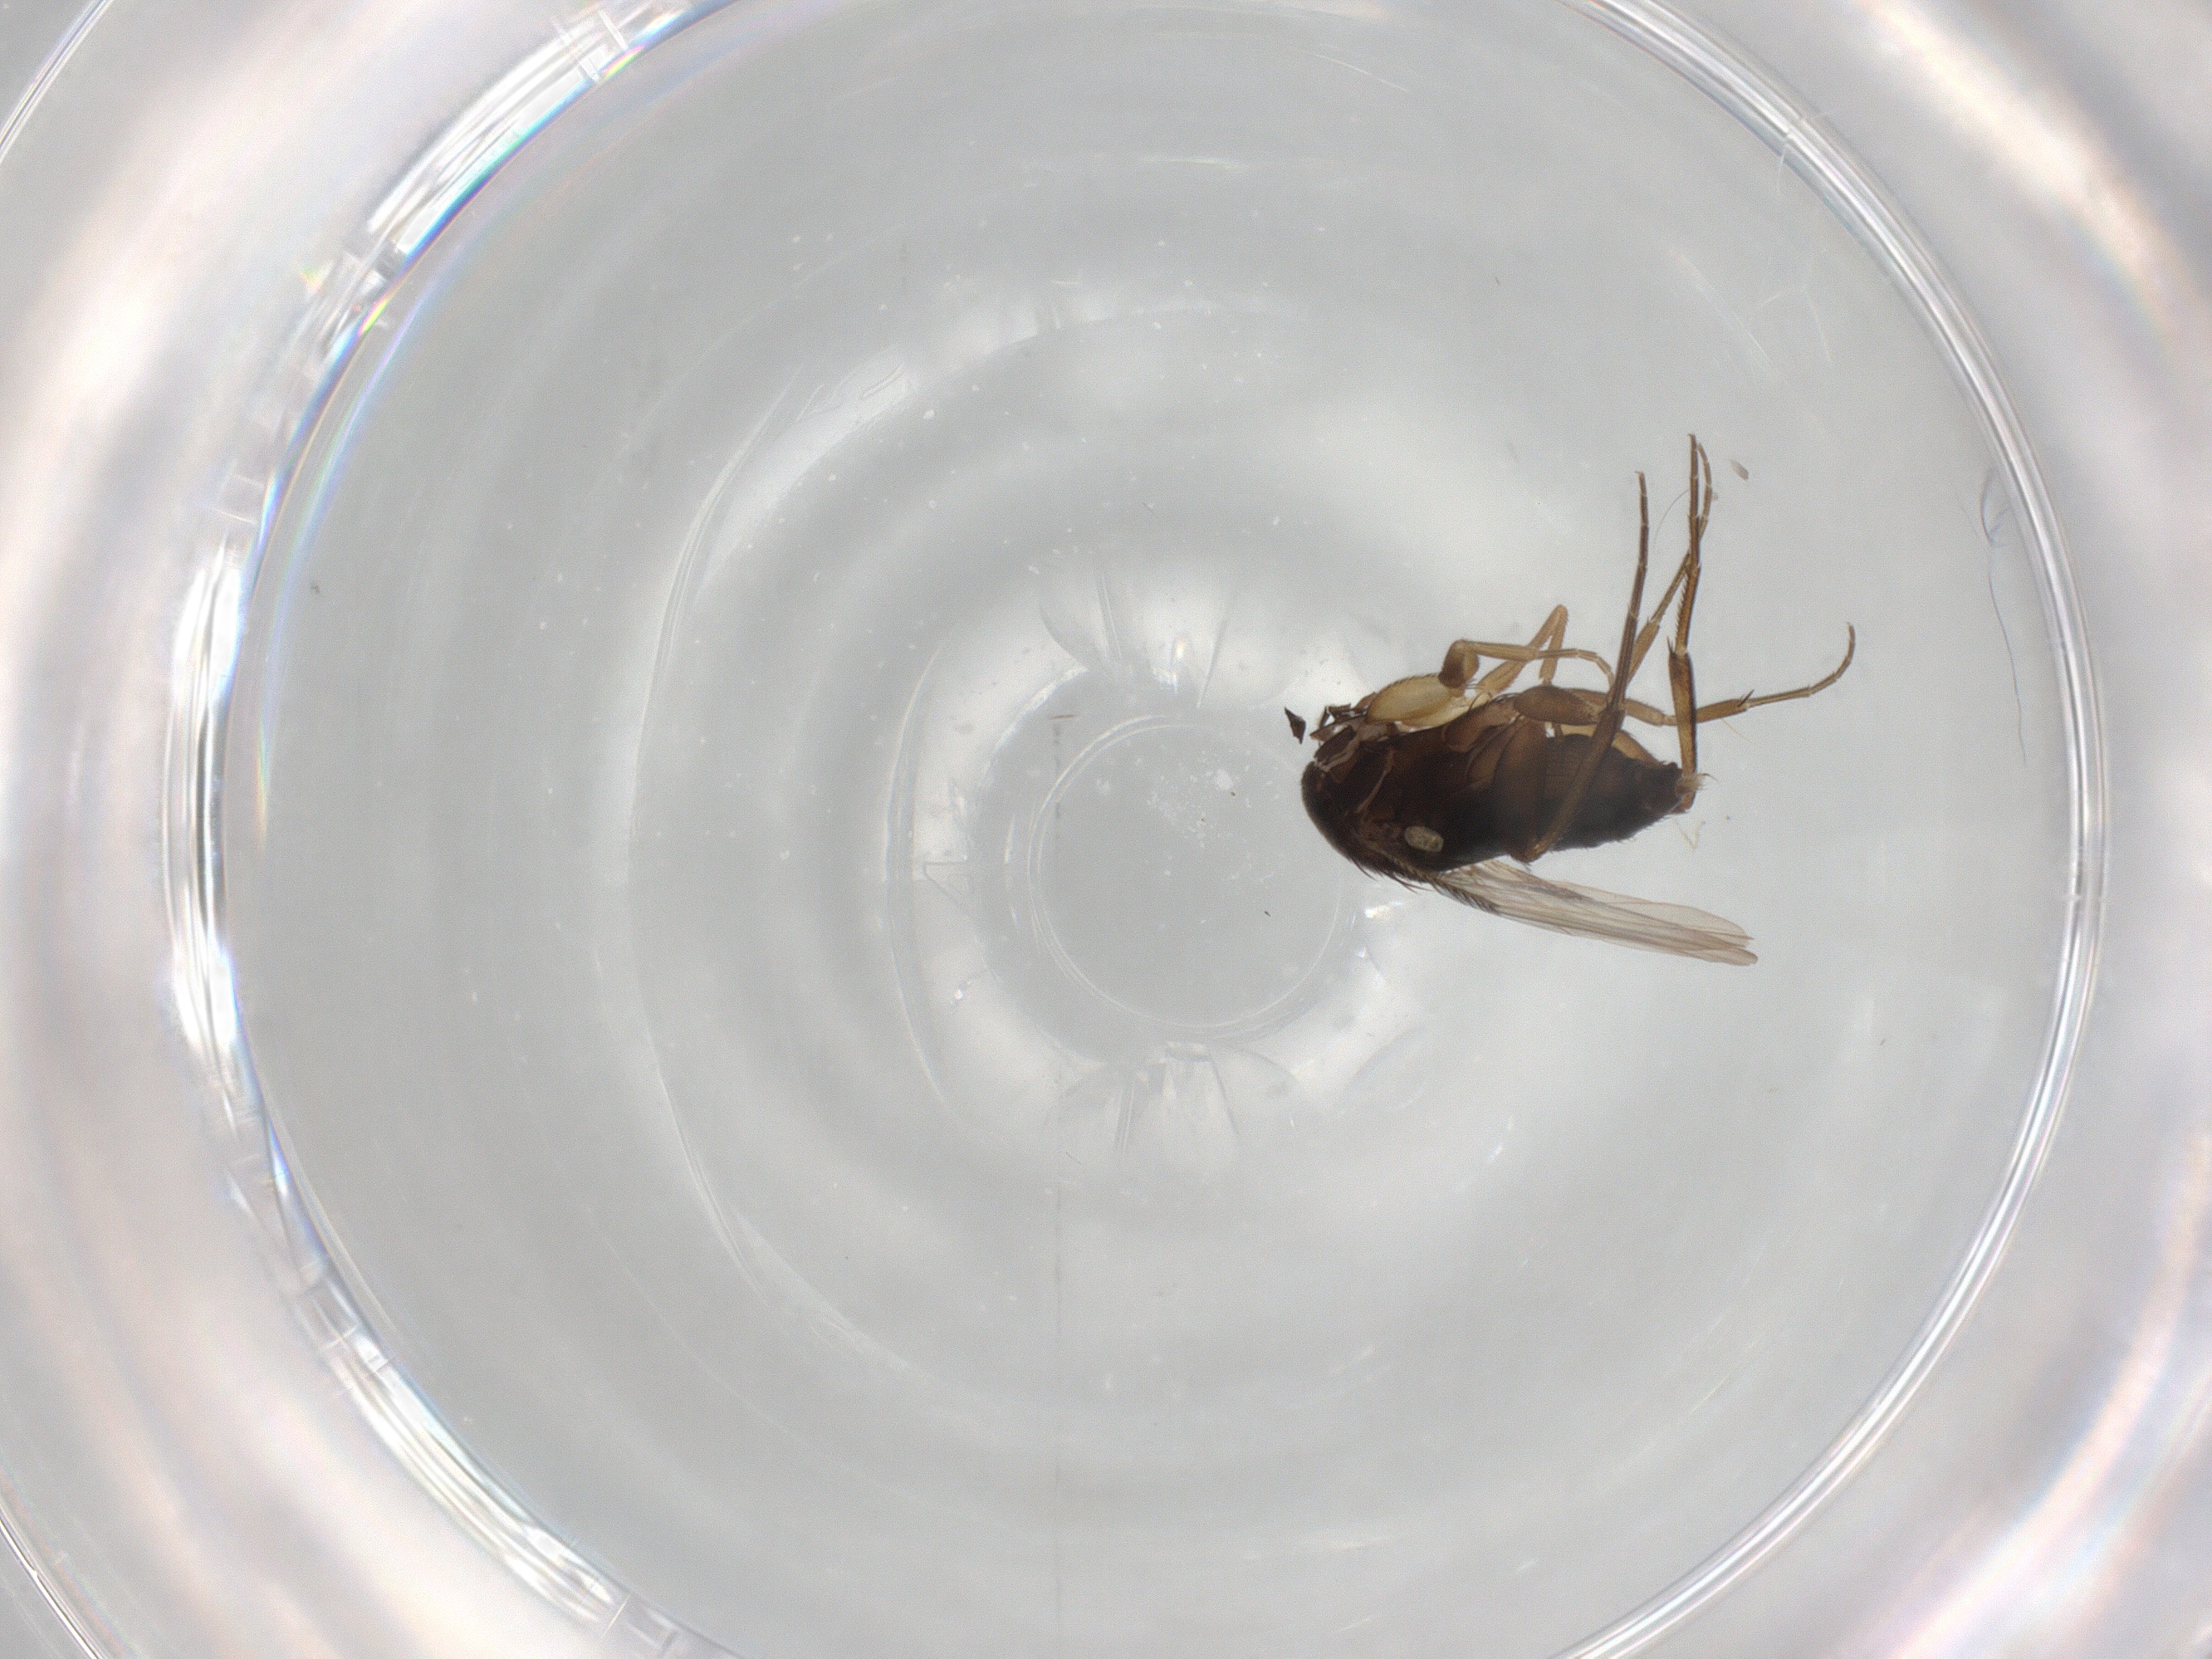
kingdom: Animalia
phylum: Arthropoda
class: Insecta
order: Diptera
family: Phoridae
